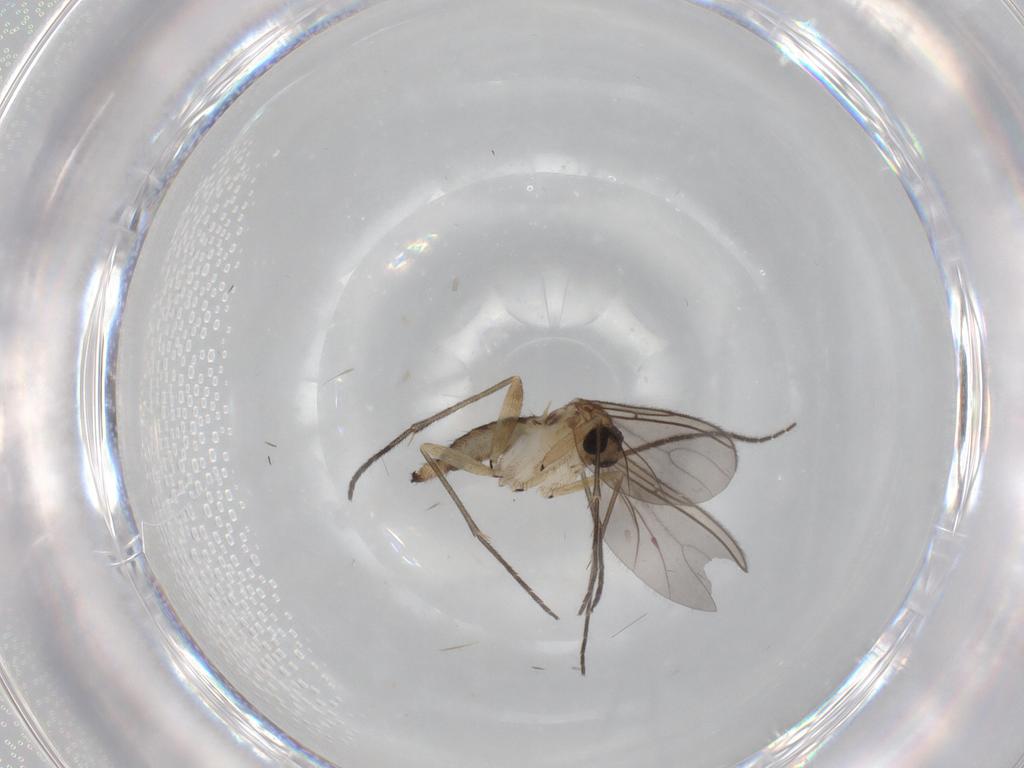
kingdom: Animalia
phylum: Arthropoda
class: Insecta
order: Diptera
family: Sciaridae
